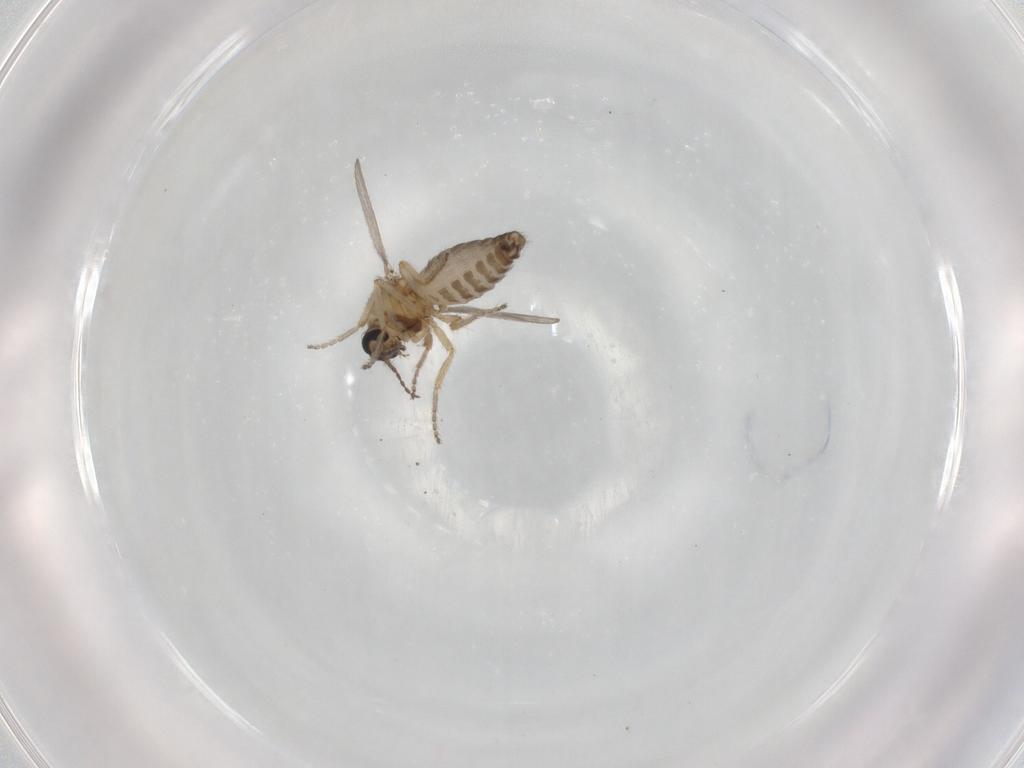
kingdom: Animalia
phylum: Arthropoda
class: Insecta
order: Diptera
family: Ceratopogonidae
